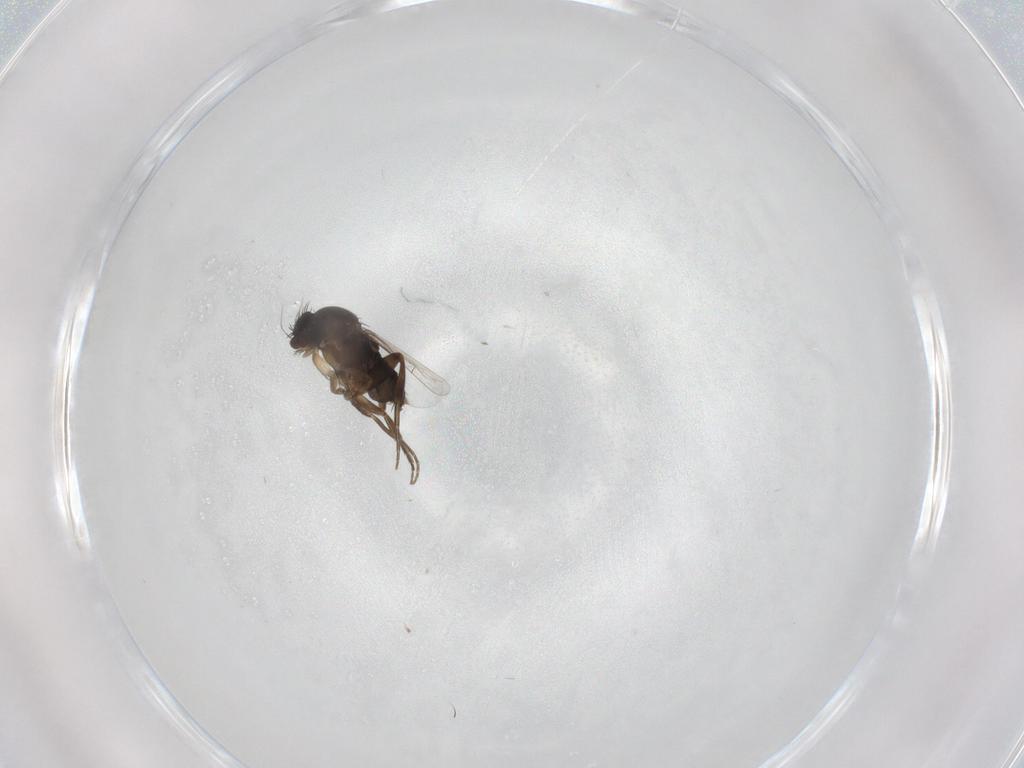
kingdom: Animalia
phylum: Arthropoda
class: Insecta
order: Diptera
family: Phoridae
